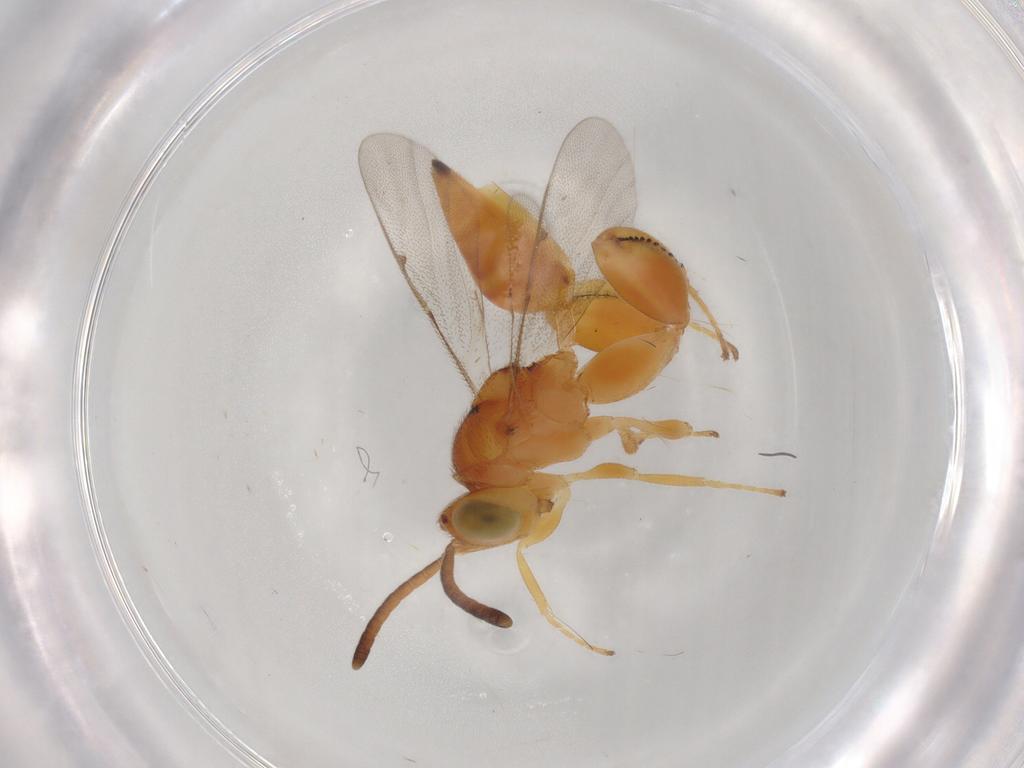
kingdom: Animalia
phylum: Arthropoda
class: Insecta
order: Hymenoptera
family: Chalcididae
